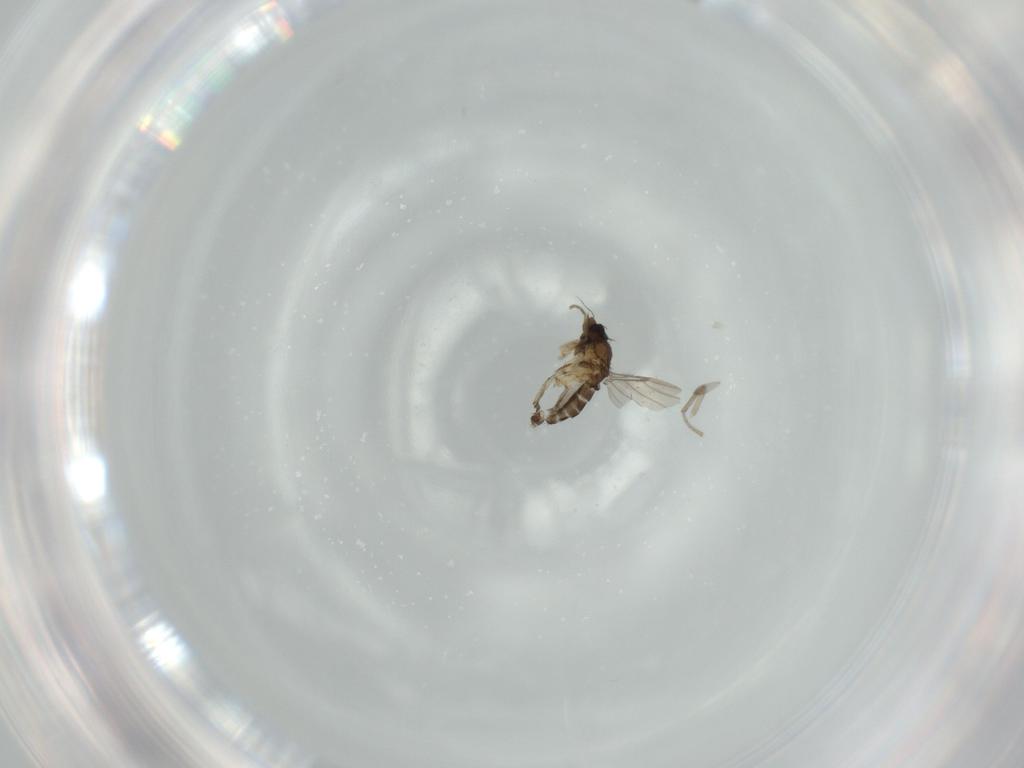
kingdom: Animalia
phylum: Arthropoda
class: Insecta
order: Diptera
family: Phoridae
